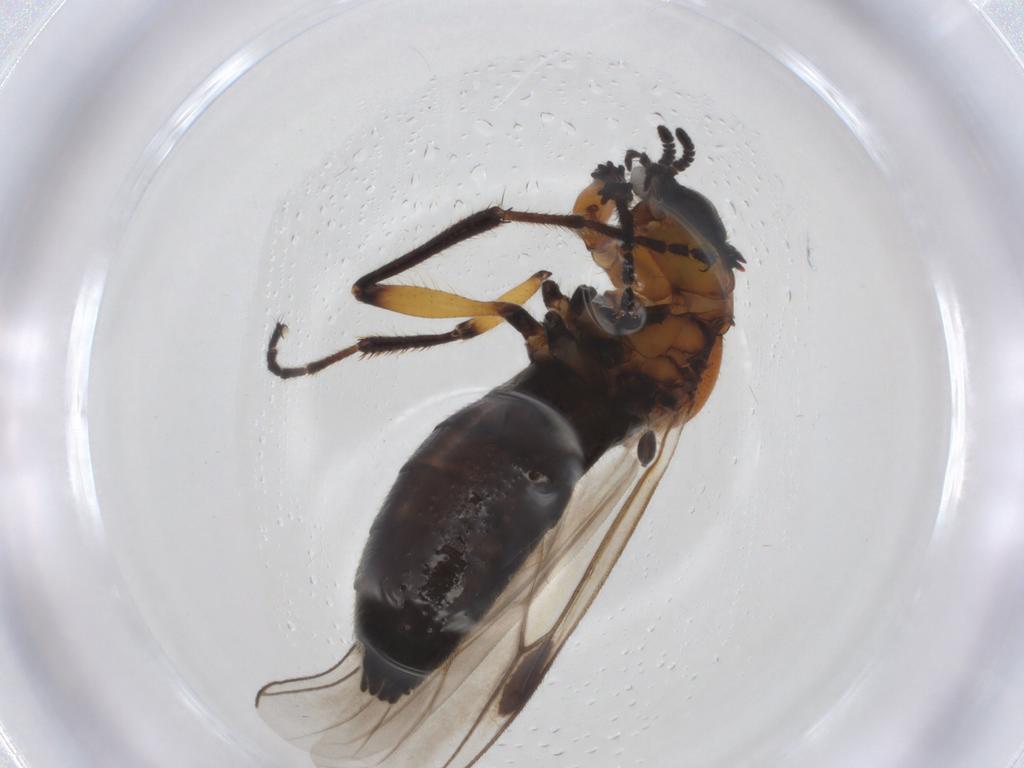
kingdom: Animalia
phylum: Arthropoda
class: Insecta
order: Diptera
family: Bibionidae
